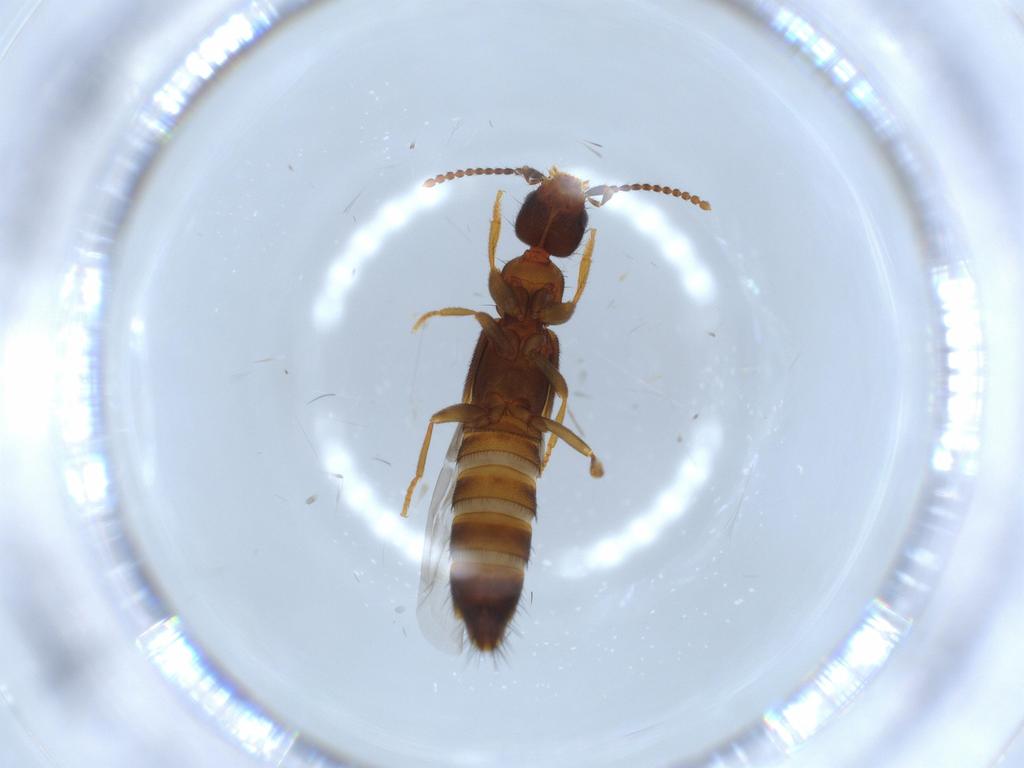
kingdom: Animalia
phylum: Arthropoda
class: Insecta
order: Coleoptera
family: Staphylinidae
